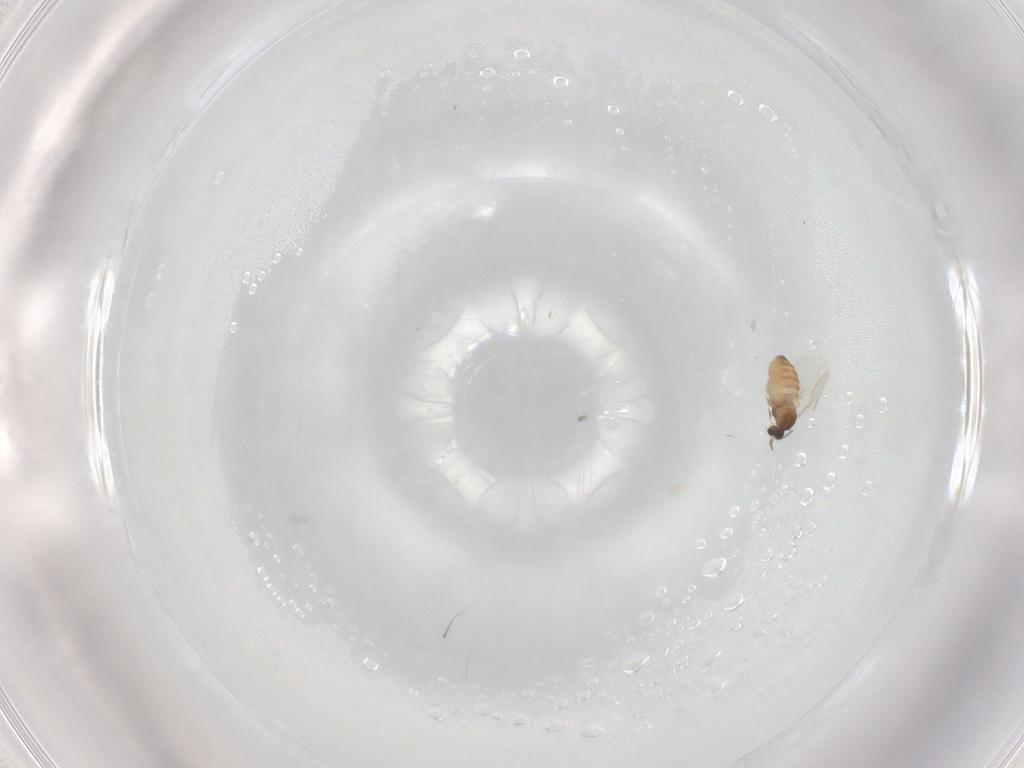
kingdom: Animalia
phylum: Arthropoda
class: Insecta
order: Diptera
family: Cecidomyiidae
